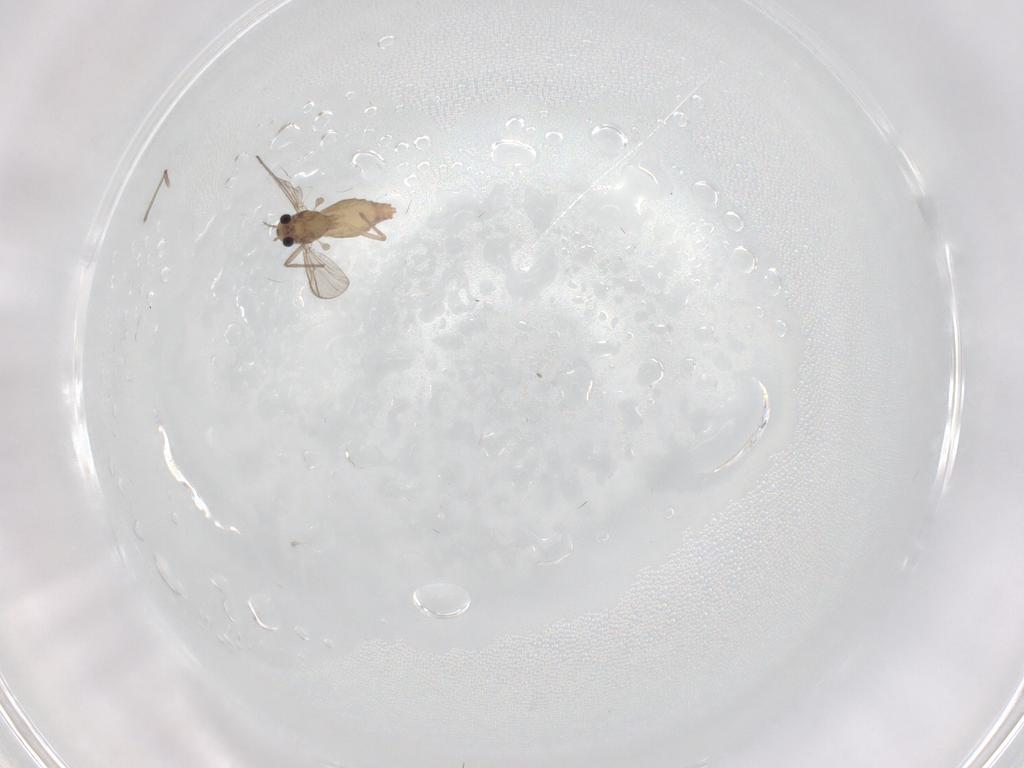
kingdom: Animalia
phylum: Arthropoda
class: Insecta
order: Diptera
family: Chironomidae
